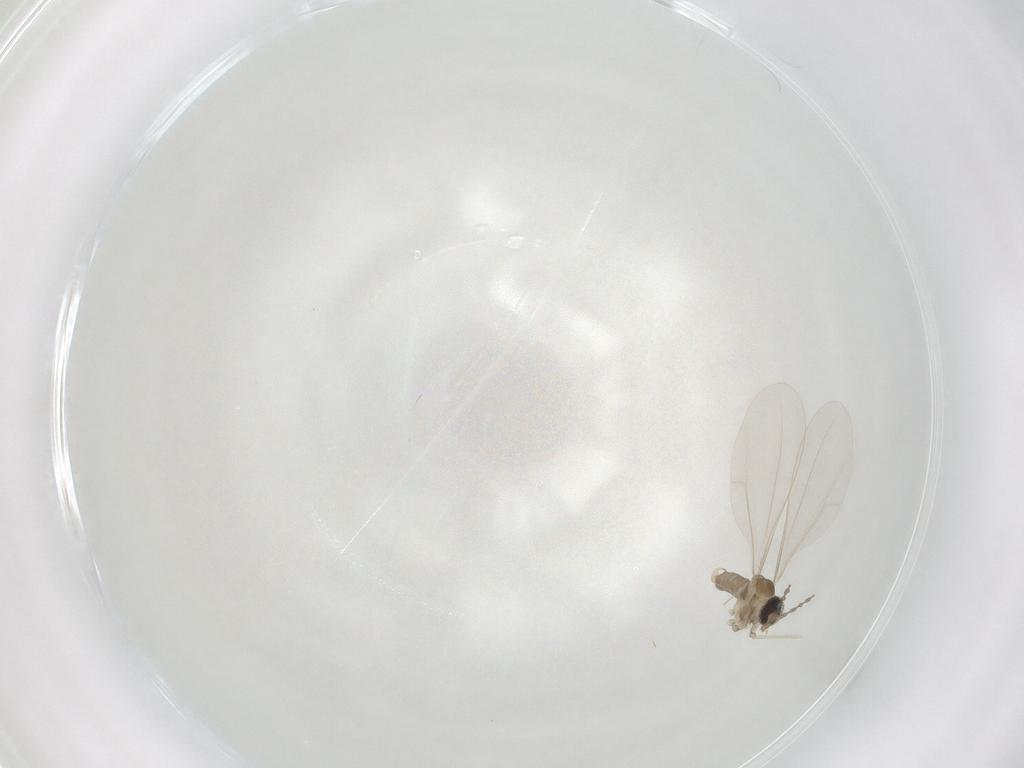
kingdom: Animalia
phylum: Arthropoda
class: Insecta
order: Diptera
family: Cecidomyiidae
